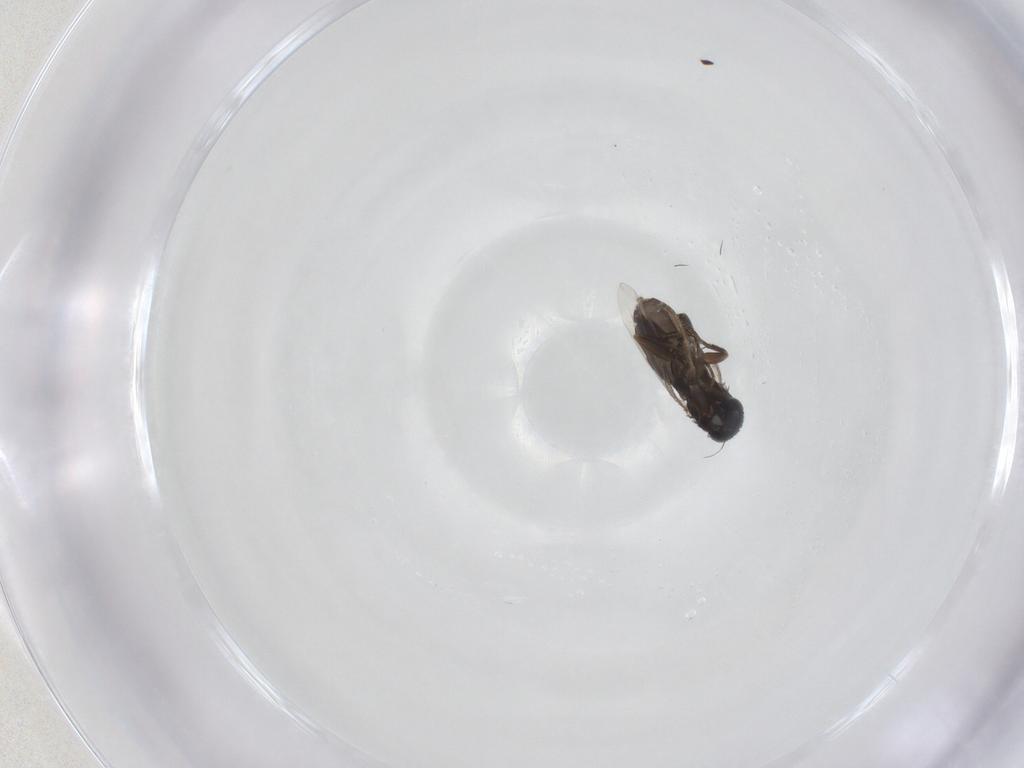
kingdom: Animalia
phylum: Arthropoda
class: Insecta
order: Diptera
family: Phoridae
